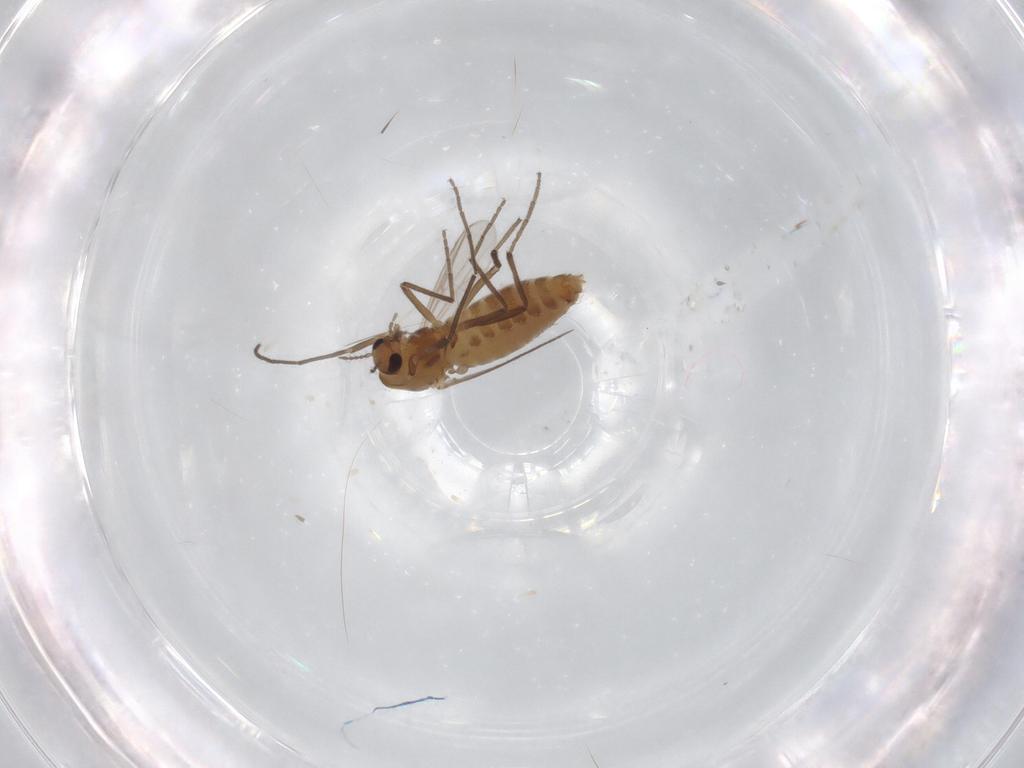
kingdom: Animalia
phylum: Arthropoda
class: Insecta
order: Diptera
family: Chironomidae
